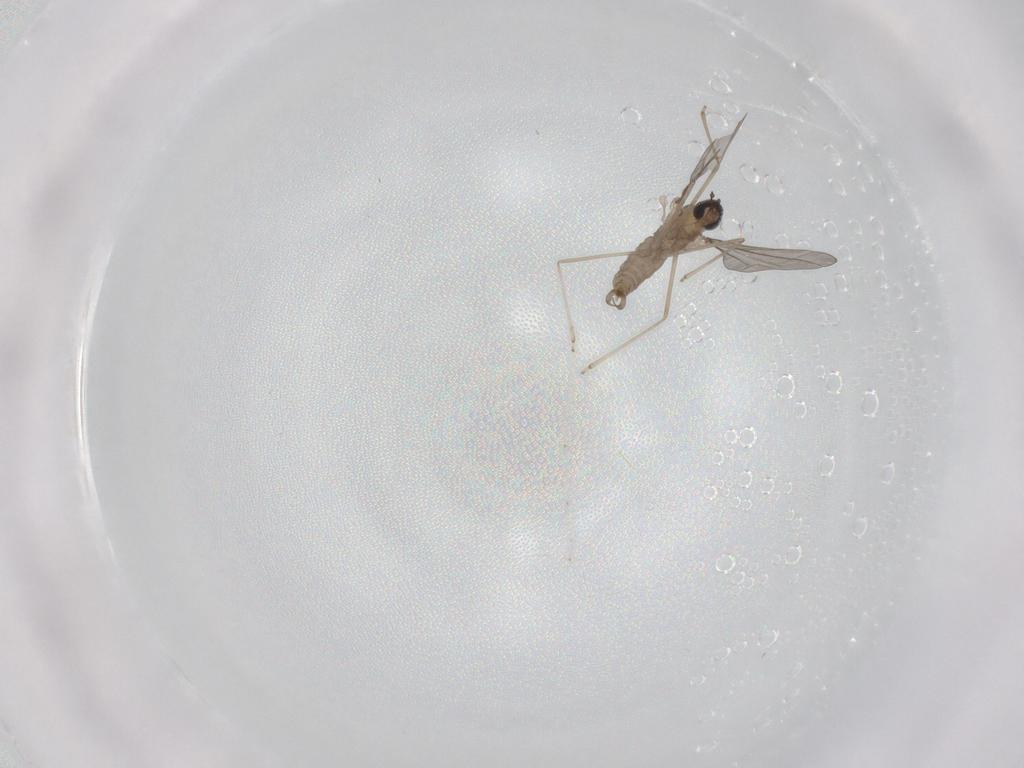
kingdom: Animalia
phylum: Arthropoda
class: Insecta
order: Diptera
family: Cecidomyiidae
